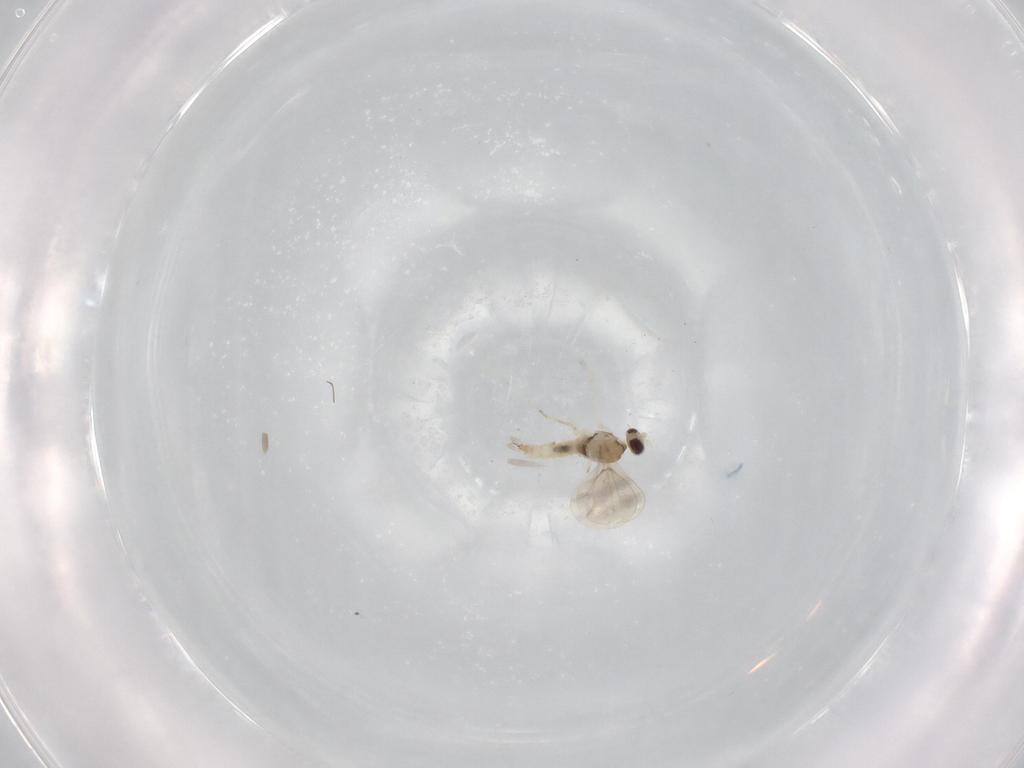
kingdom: Animalia
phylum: Arthropoda
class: Insecta
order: Diptera
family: Cecidomyiidae
